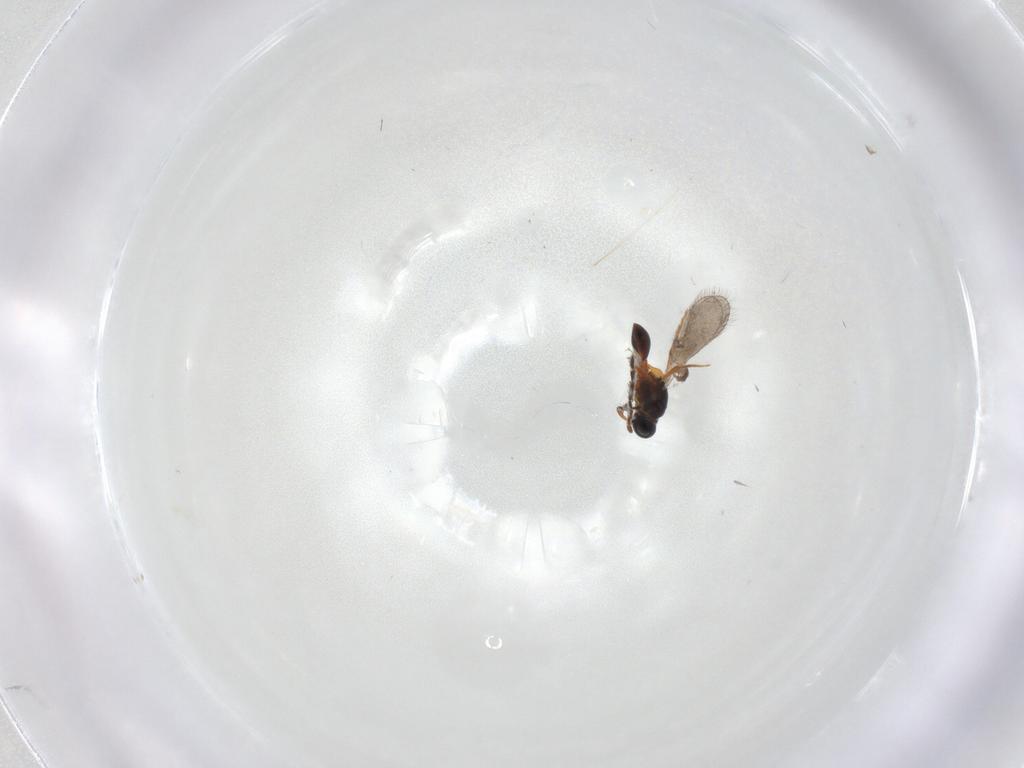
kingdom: Animalia
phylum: Arthropoda
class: Insecta
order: Hymenoptera
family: Platygastridae
